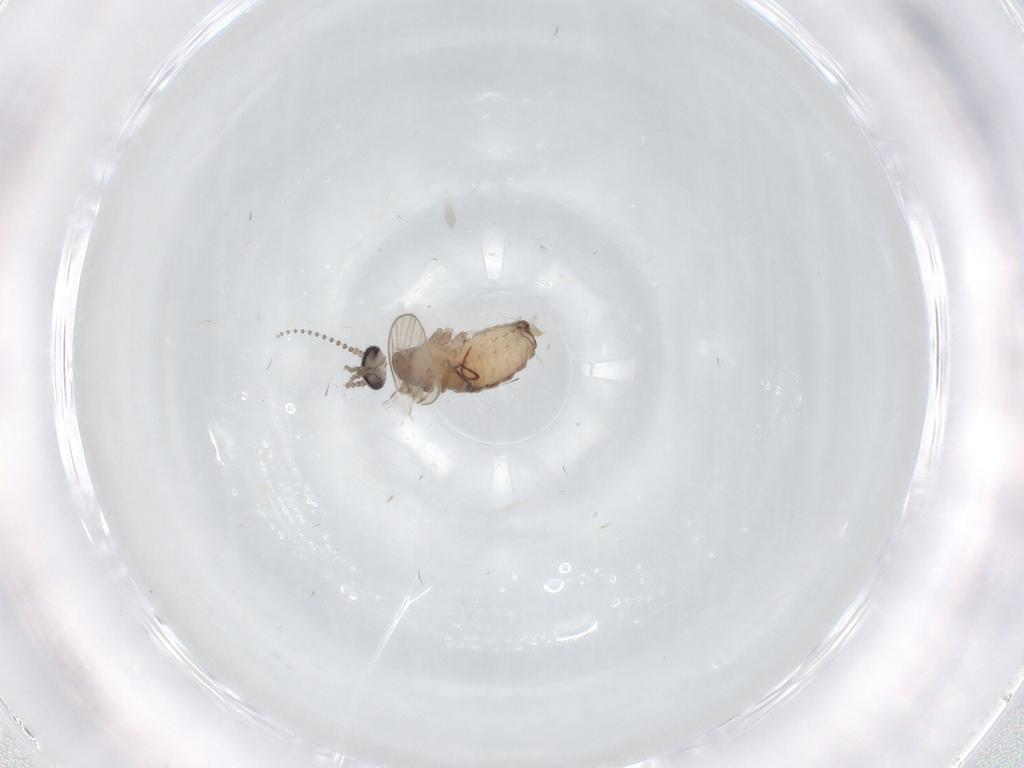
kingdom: Animalia
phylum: Arthropoda
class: Insecta
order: Diptera
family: Psychodidae
